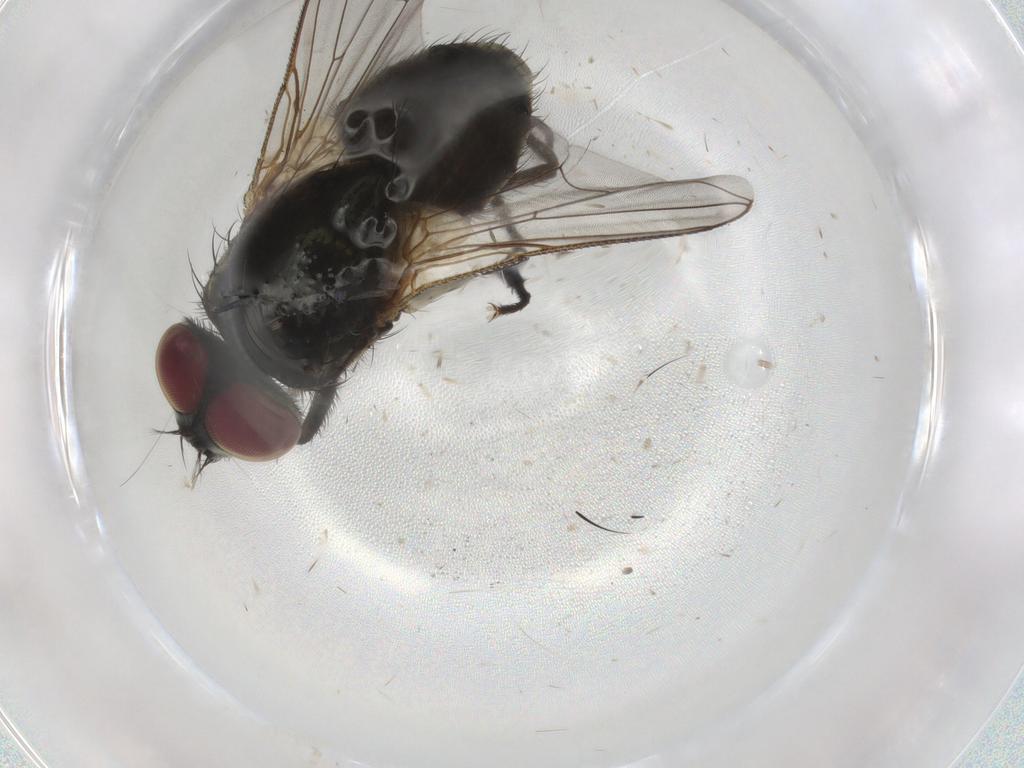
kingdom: Animalia
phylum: Arthropoda
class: Insecta
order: Diptera
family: Muscidae
